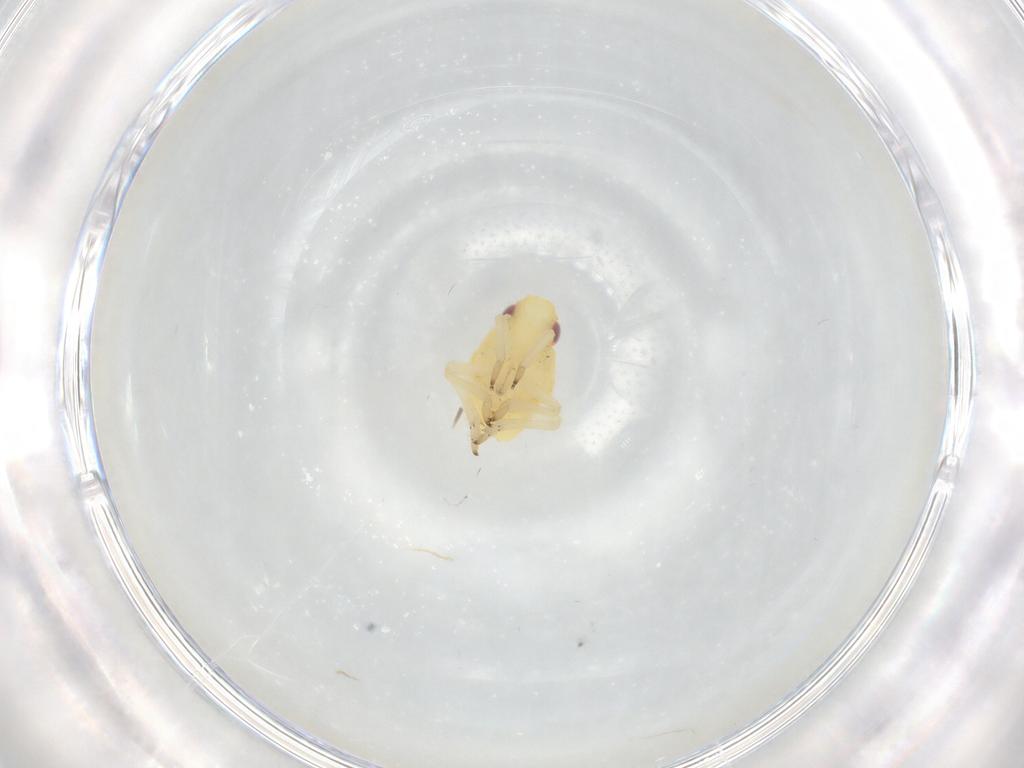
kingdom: Animalia
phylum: Arthropoda
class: Insecta
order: Hemiptera
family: Caliscelidae
